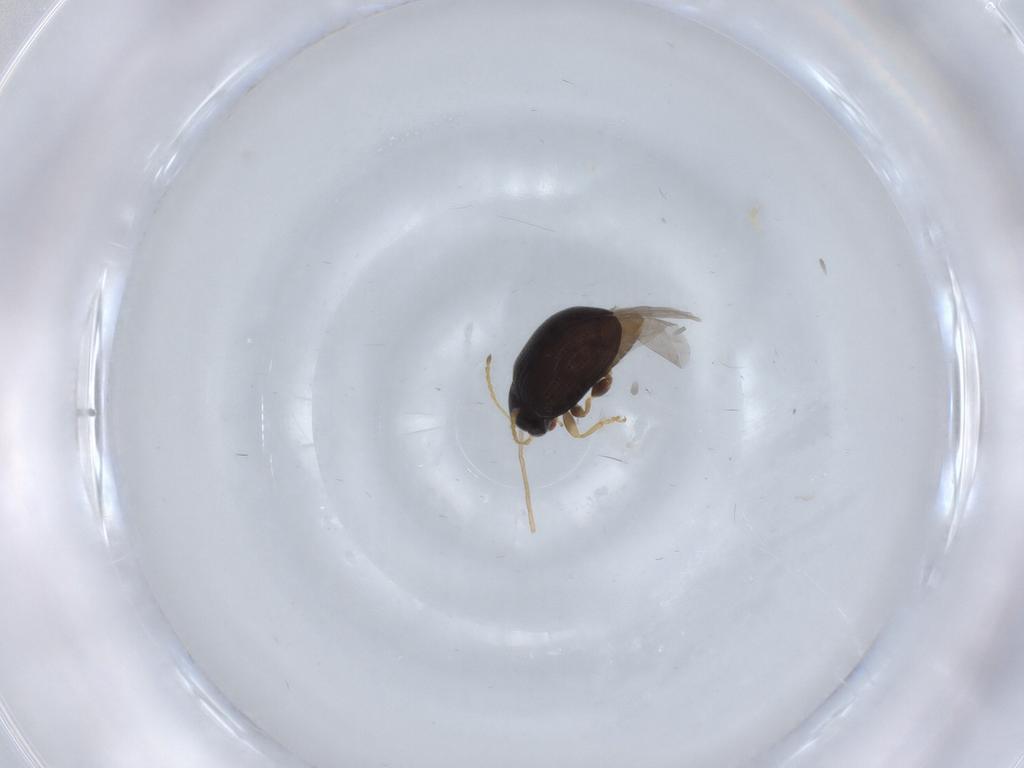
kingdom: Animalia
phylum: Arthropoda
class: Insecta
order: Coleoptera
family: Chrysomelidae
